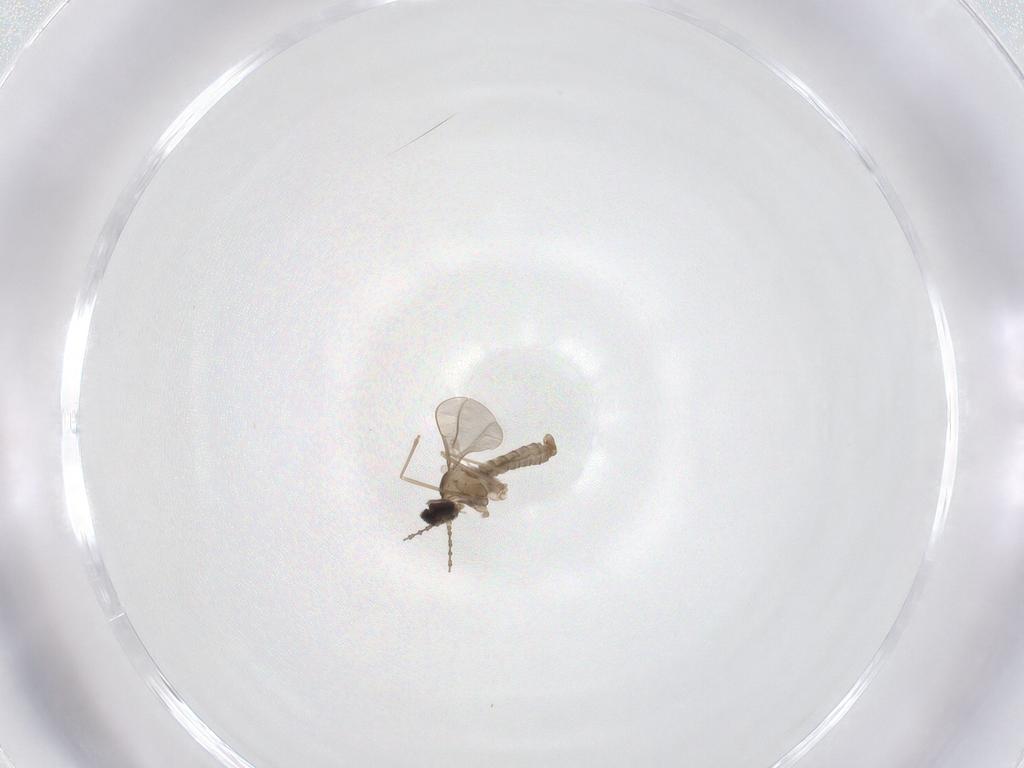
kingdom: Animalia
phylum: Arthropoda
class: Insecta
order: Diptera
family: Cecidomyiidae
